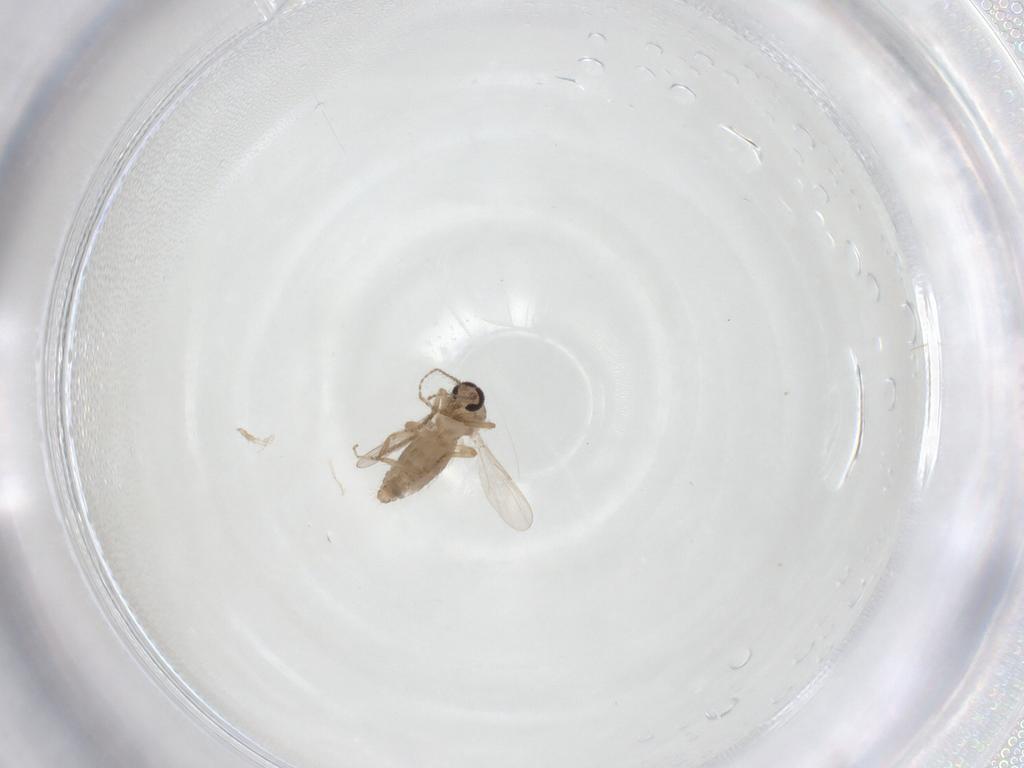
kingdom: Animalia
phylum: Arthropoda
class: Insecta
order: Diptera
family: Ceratopogonidae
